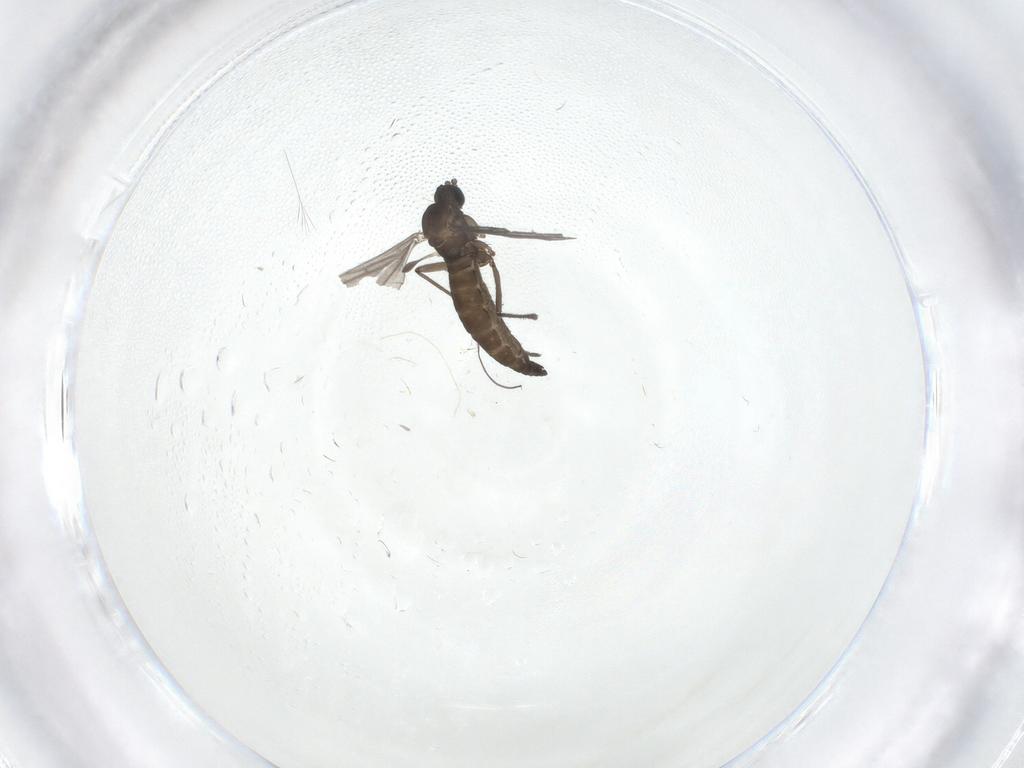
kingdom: Animalia
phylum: Arthropoda
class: Insecta
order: Diptera
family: Sciaridae
